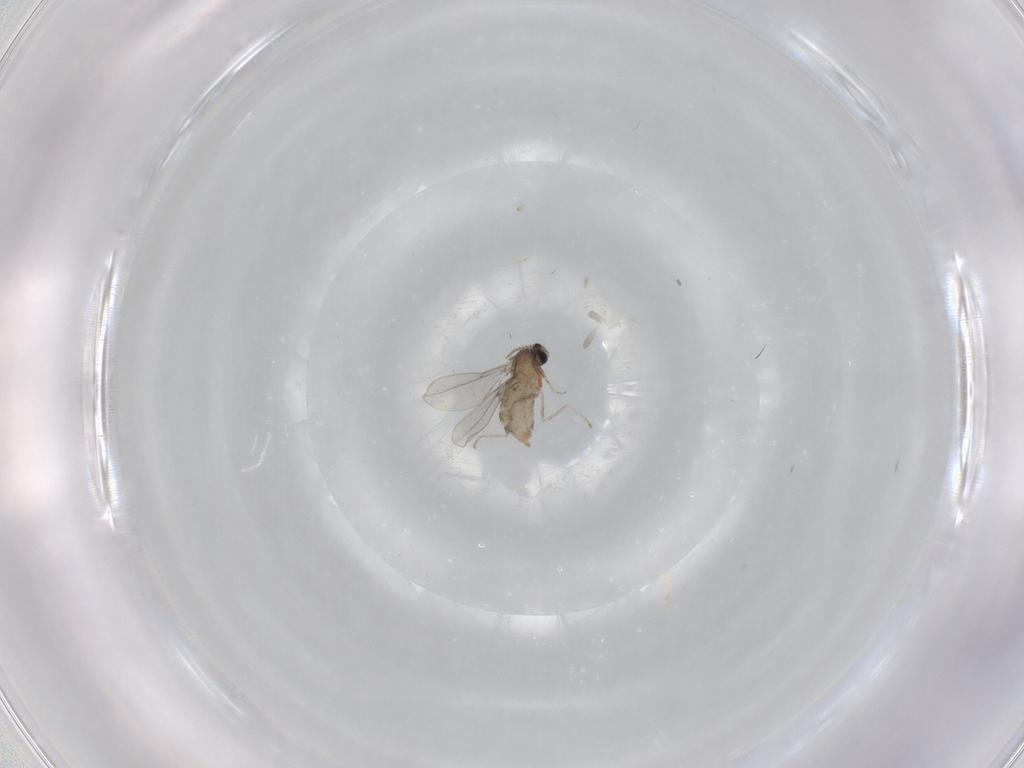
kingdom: Animalia
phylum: Arthropoda
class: Insecta
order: Diptera
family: Cecidomyiidae
